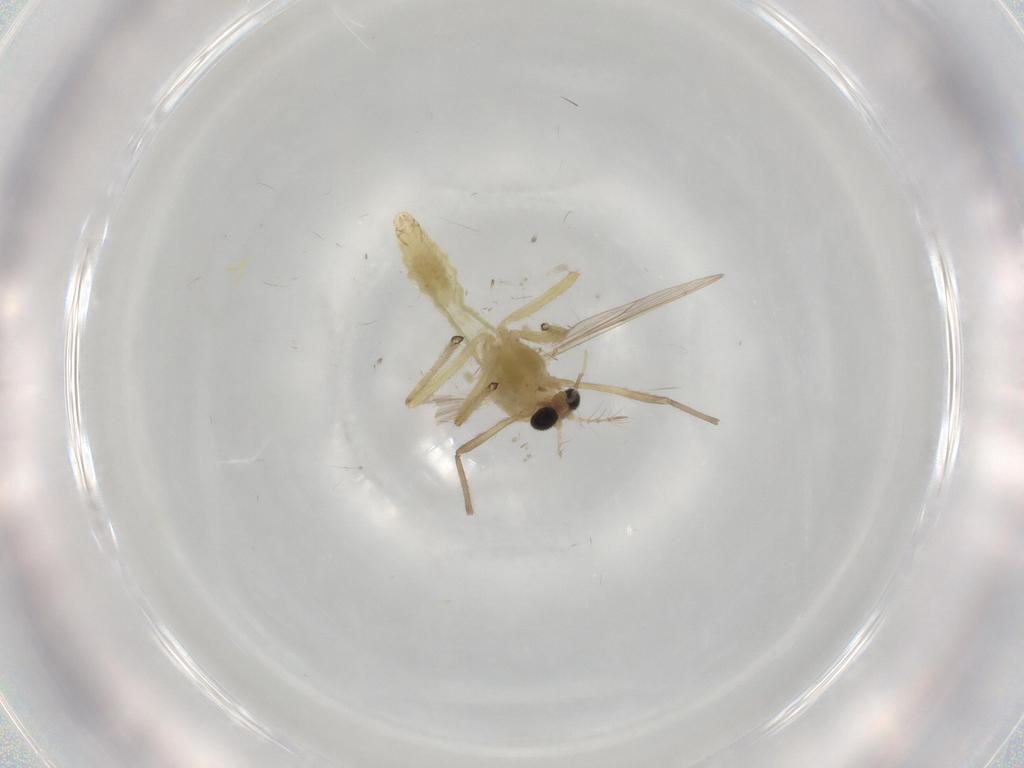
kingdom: Animalia
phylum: Arthropoda
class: Insecta
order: Diptera
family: Chironomidae
